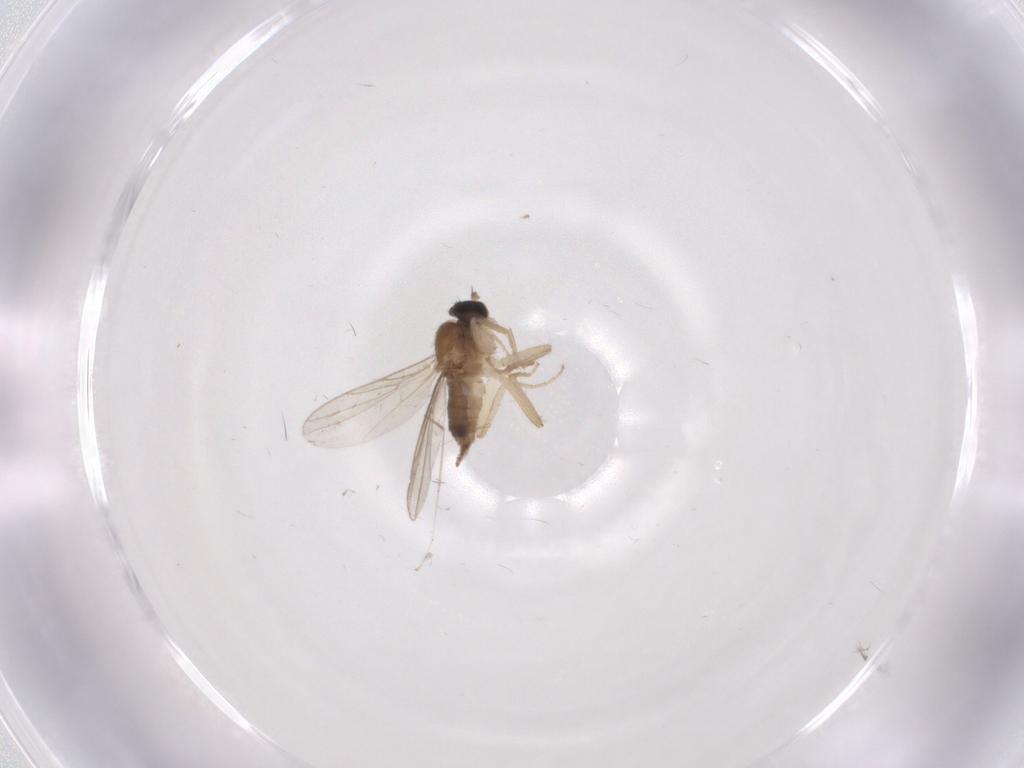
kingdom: Animalia
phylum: Arthropoda
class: Insecta
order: Diptera
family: Hybotidae
